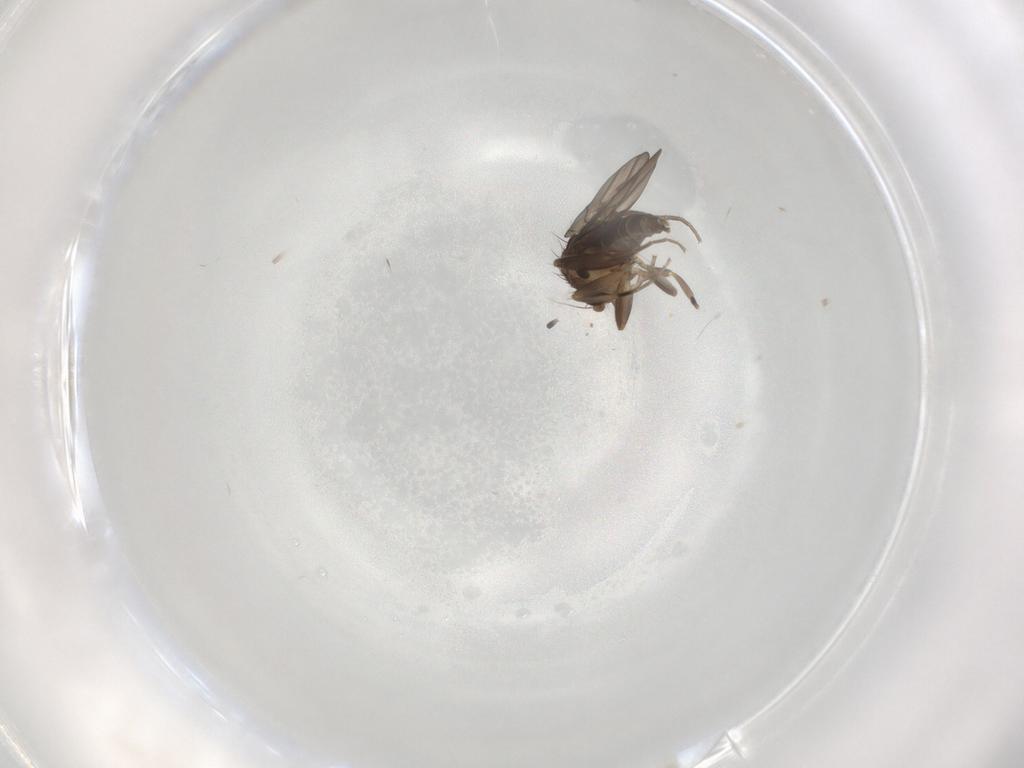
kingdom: Animalia
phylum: Arthropoda
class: Insecta
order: Diptera
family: Phoridae
